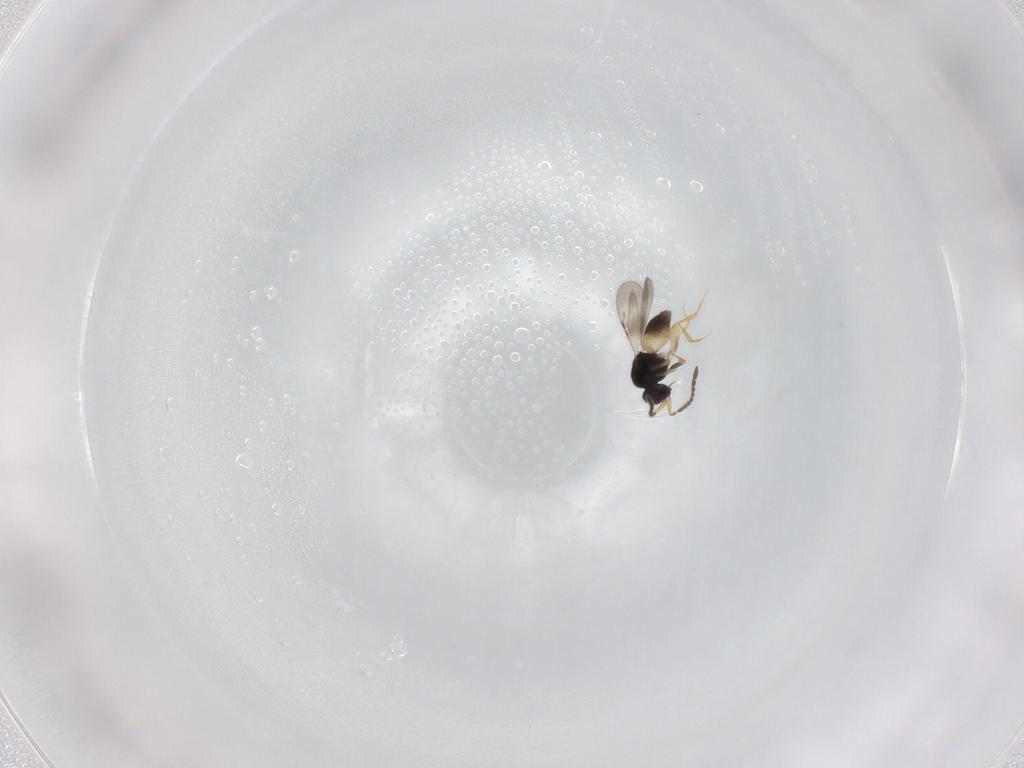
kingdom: Animalia
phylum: Arthropoda
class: Insecta
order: Hymenoptera
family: Ceraphronidae
